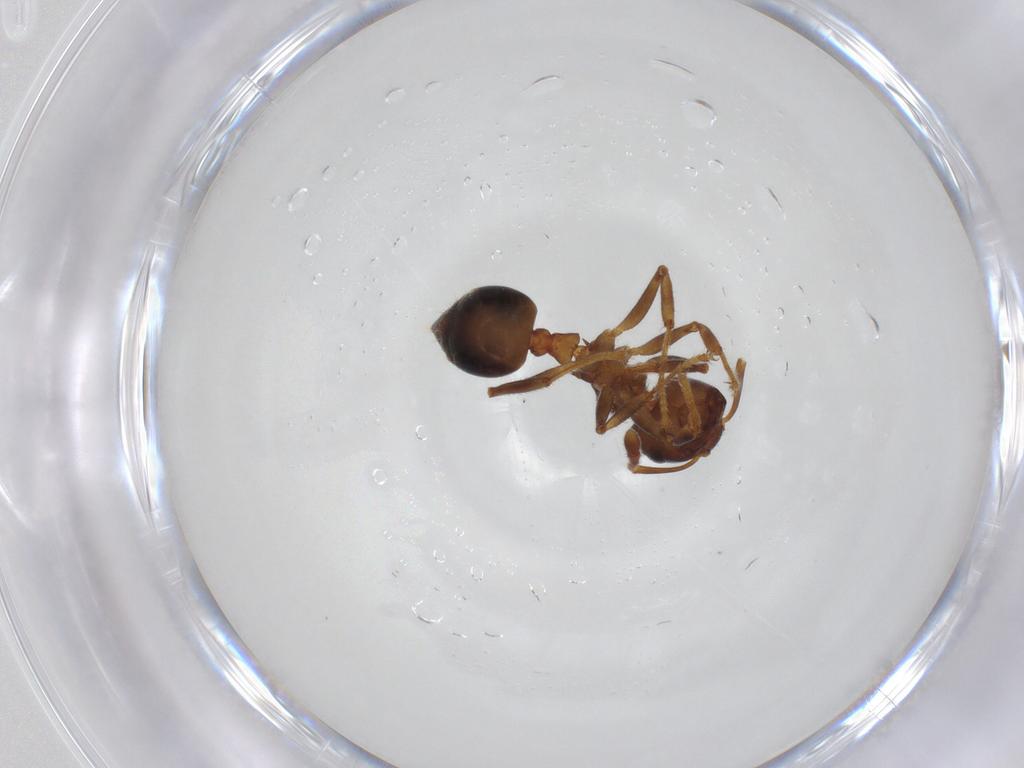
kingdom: Animalia
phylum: Arthropoda
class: Insecta
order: Hymenoptera
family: Formicidae
